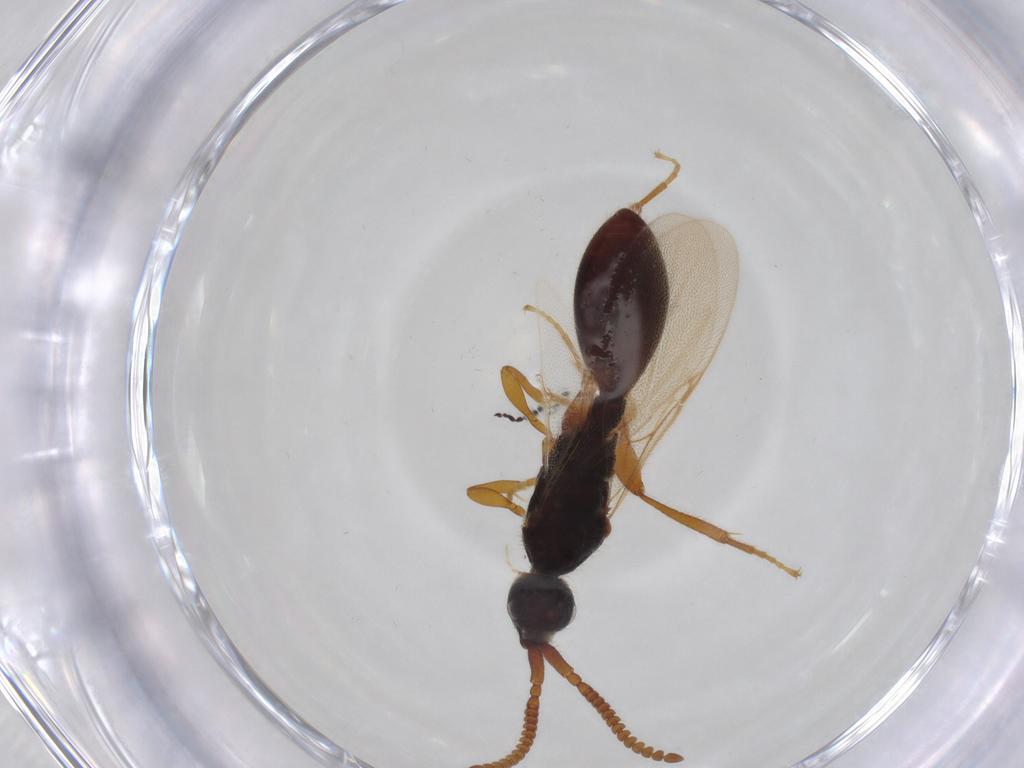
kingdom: Animalia
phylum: Arthropoda
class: Insecta
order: Hymenoptera
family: Diapriidae
